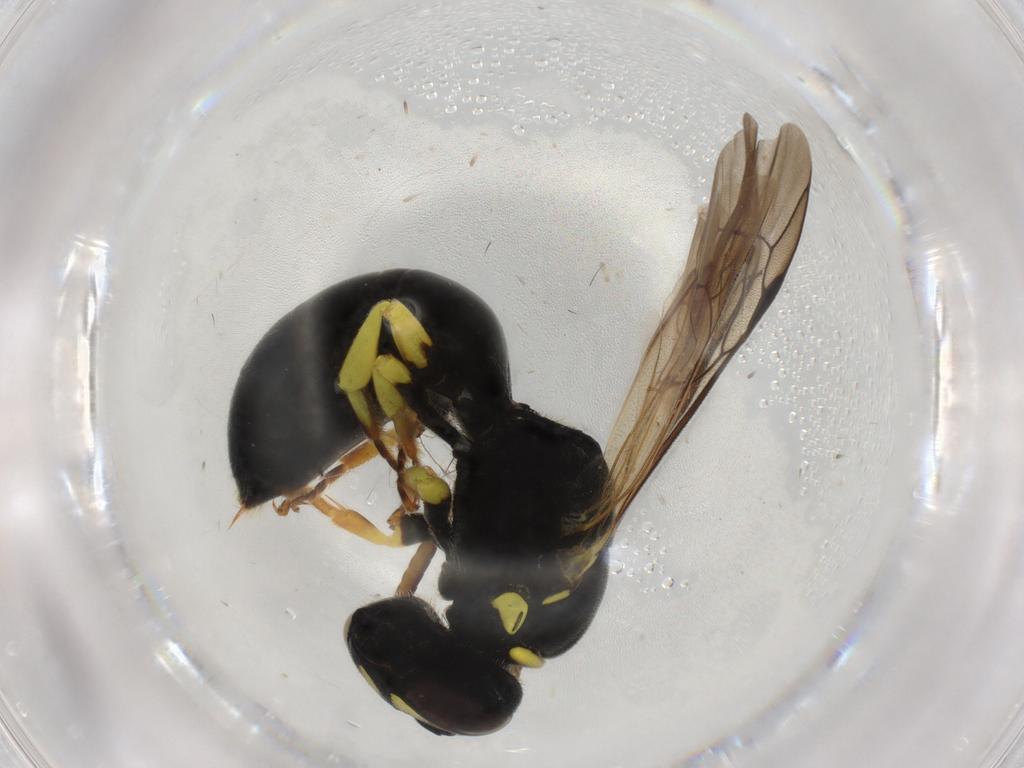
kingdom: Animalia
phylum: Arthropoda
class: Insecta
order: Hymenoptera
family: Colletidae
